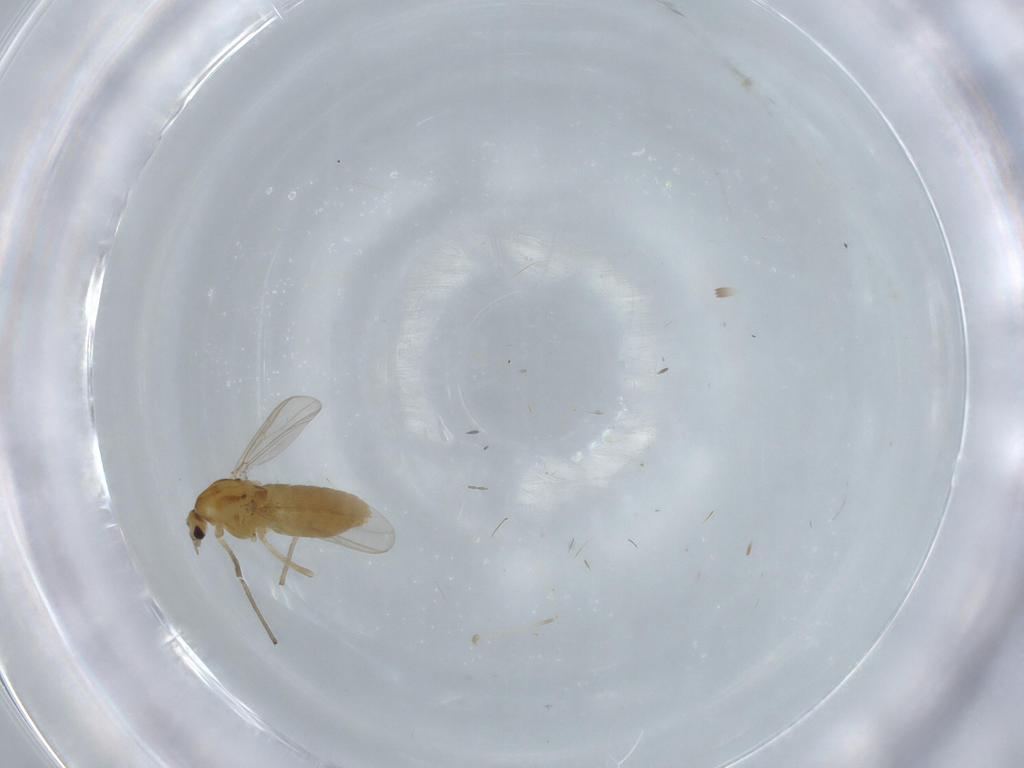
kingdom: Animalia
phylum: Arthropoda
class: Insecta
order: Diptera
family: Chironomidae
